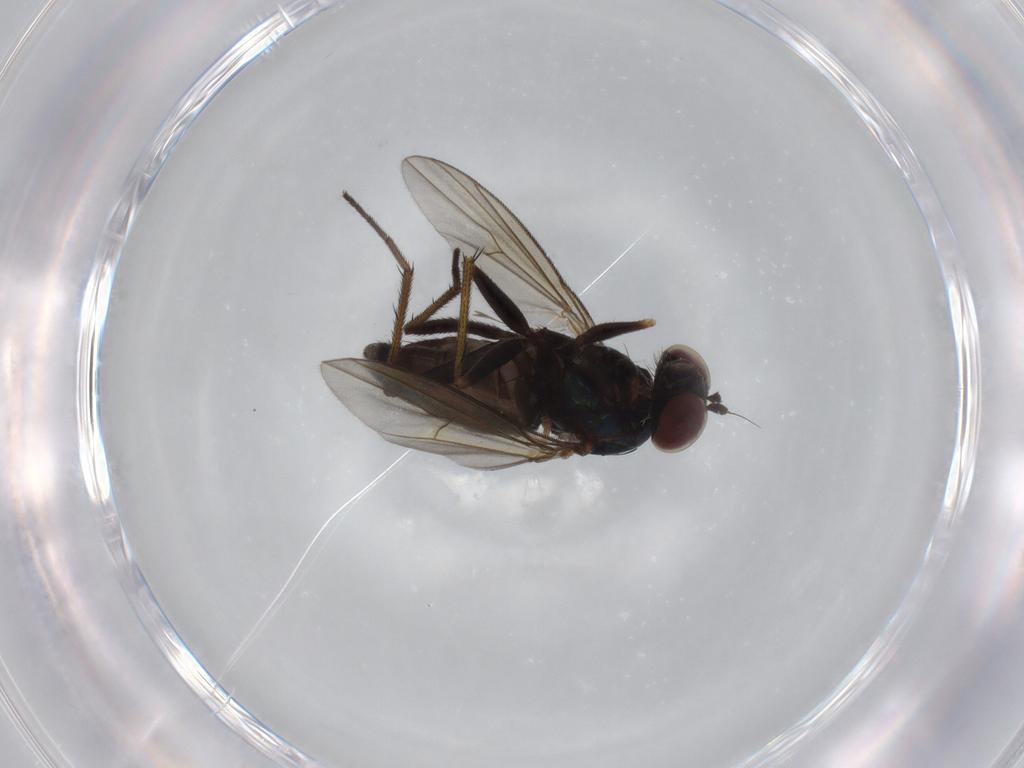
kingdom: Animalia
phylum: Arthropoda
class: Insecta
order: Diptera
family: Dolichopodidae
